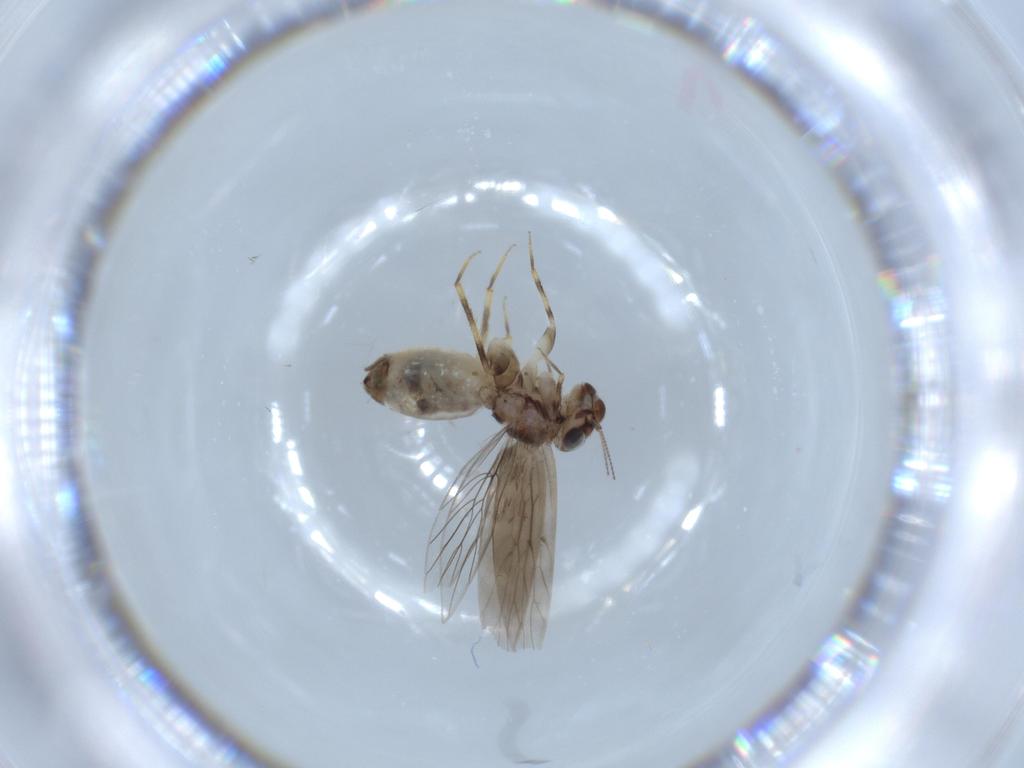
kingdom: Animalia
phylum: Arthropoda
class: Insecta
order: Psocodea
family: Lepidopsocidae
